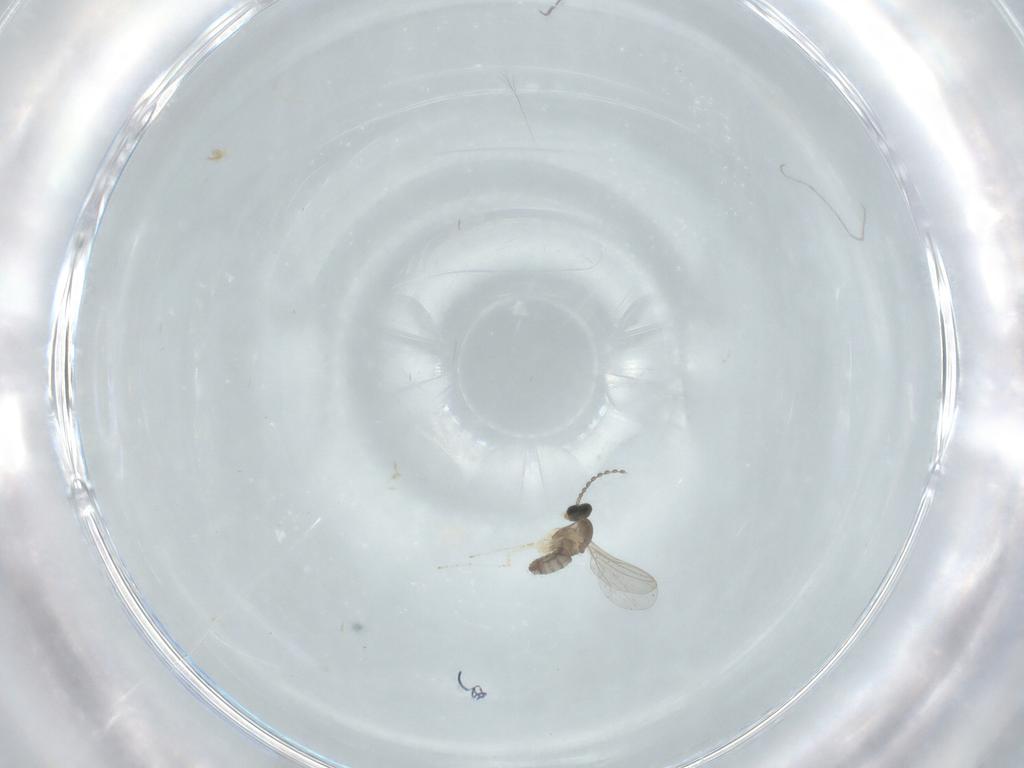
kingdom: Animalia
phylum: Arthropoda
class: Insecta
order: Diptera
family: Cecidomyiidae
